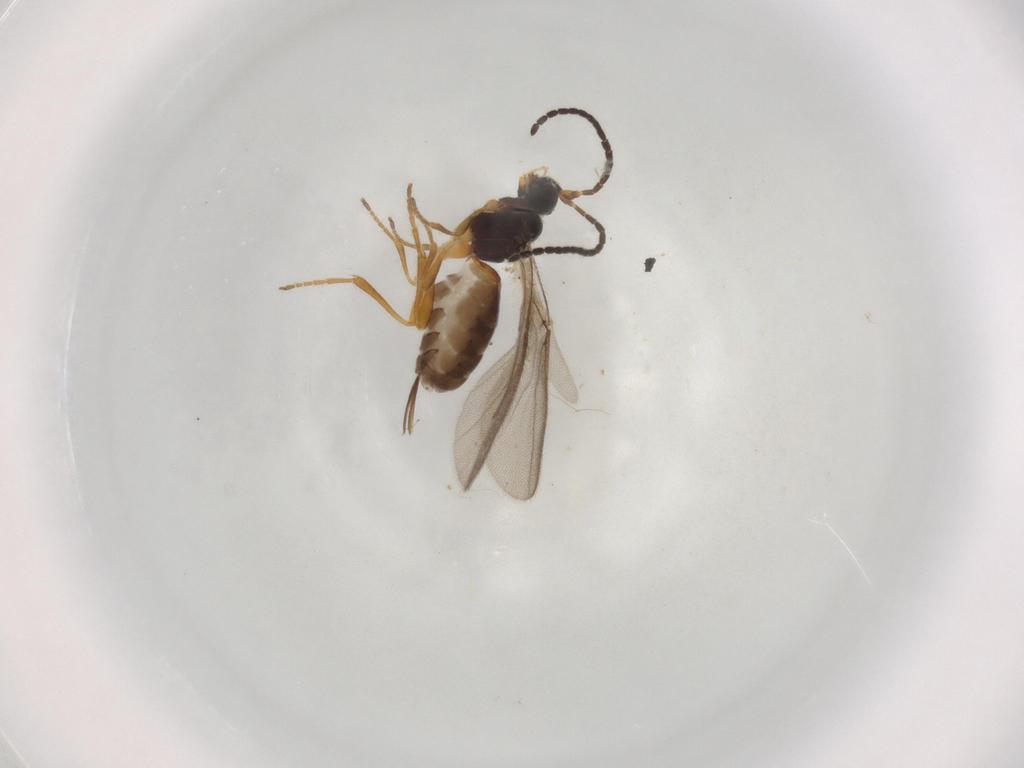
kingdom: Animalia
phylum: Arthropoda
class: Insecta
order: Hymenoptera
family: Braconidae
